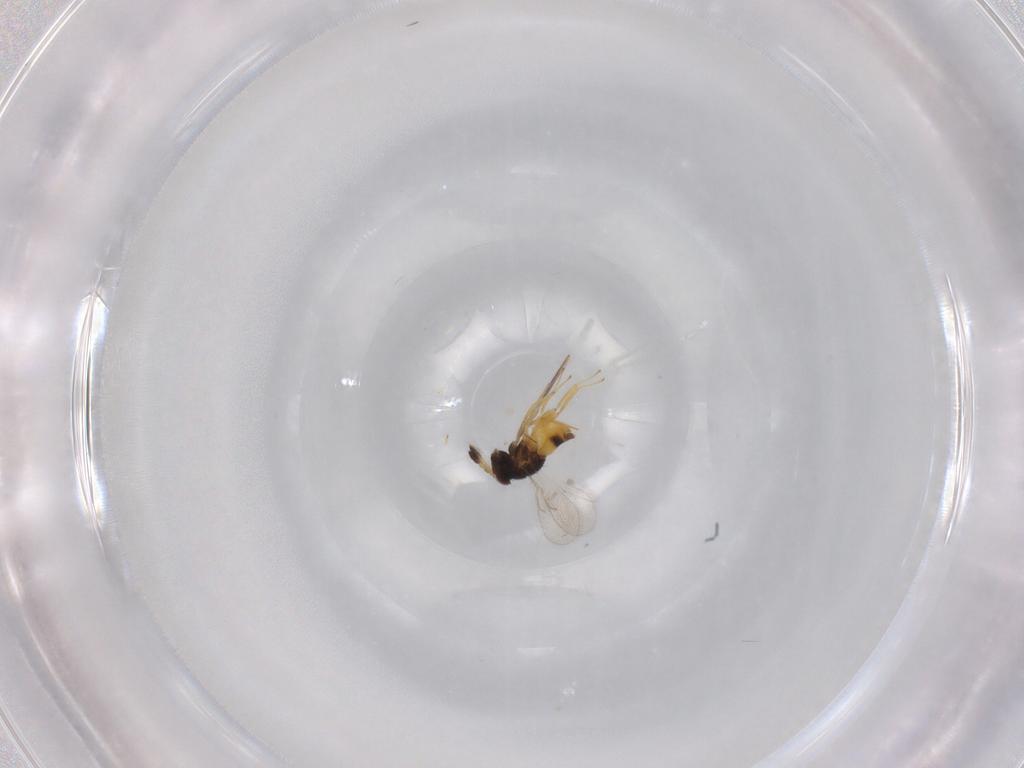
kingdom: Animalia
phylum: Arthropoda
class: Insecta
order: Hymenoptera
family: Aphelinidae
